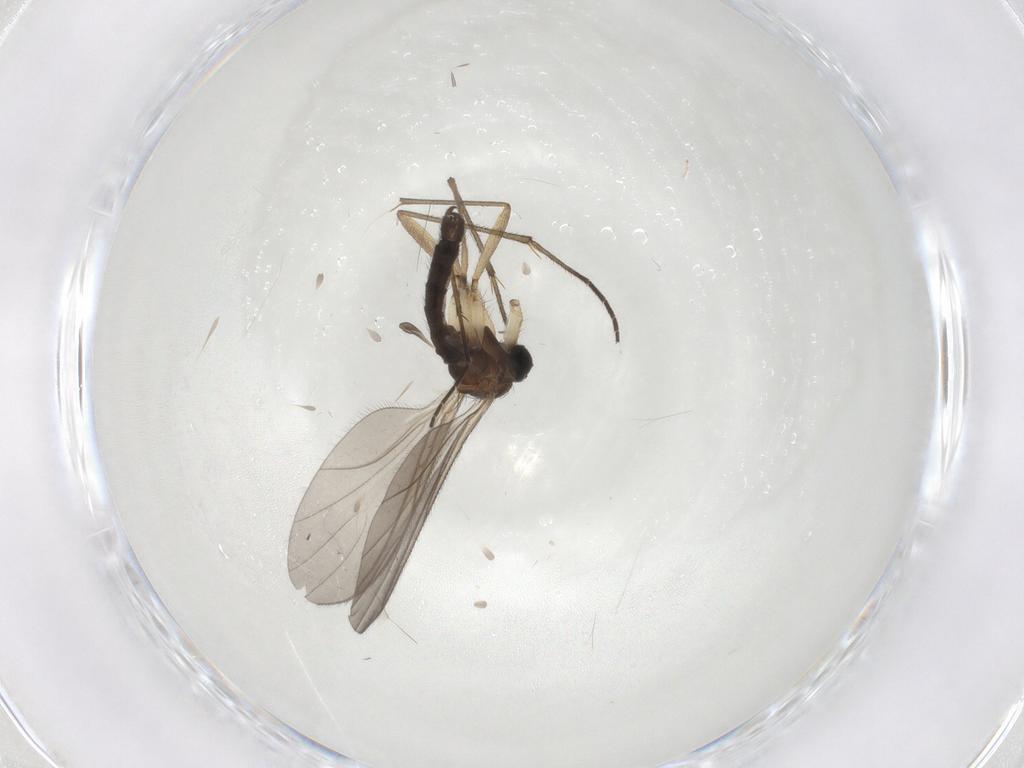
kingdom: Animalia
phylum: Arthropoda
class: Insecta
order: Diptera
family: Sciaridae
